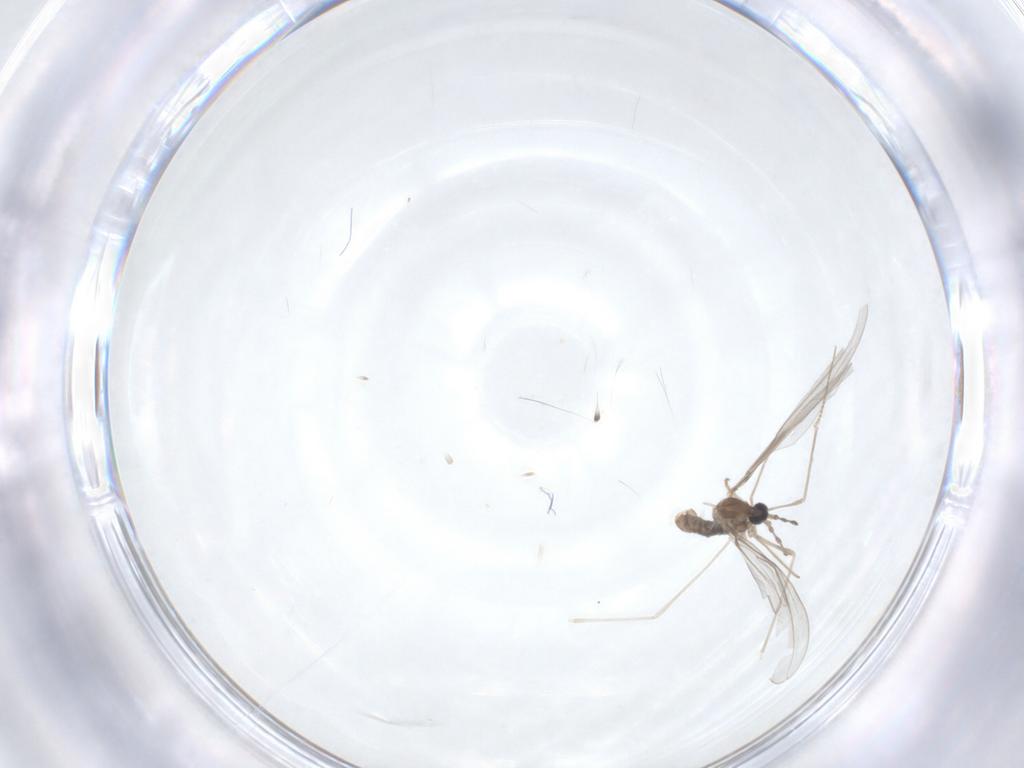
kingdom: Animalia
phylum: Arthropoda
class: Insecta
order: Diptera
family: Chironomidae
